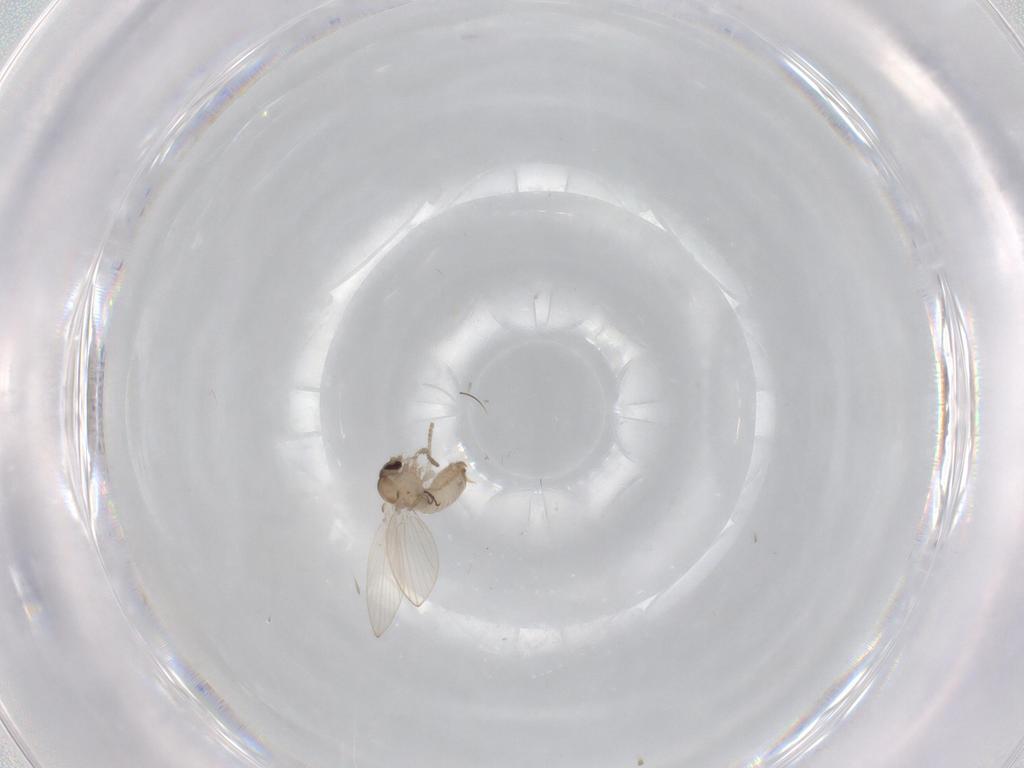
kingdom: Animalia
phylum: Arthropoda
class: Insecta
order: Diptera
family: Psychodidae
